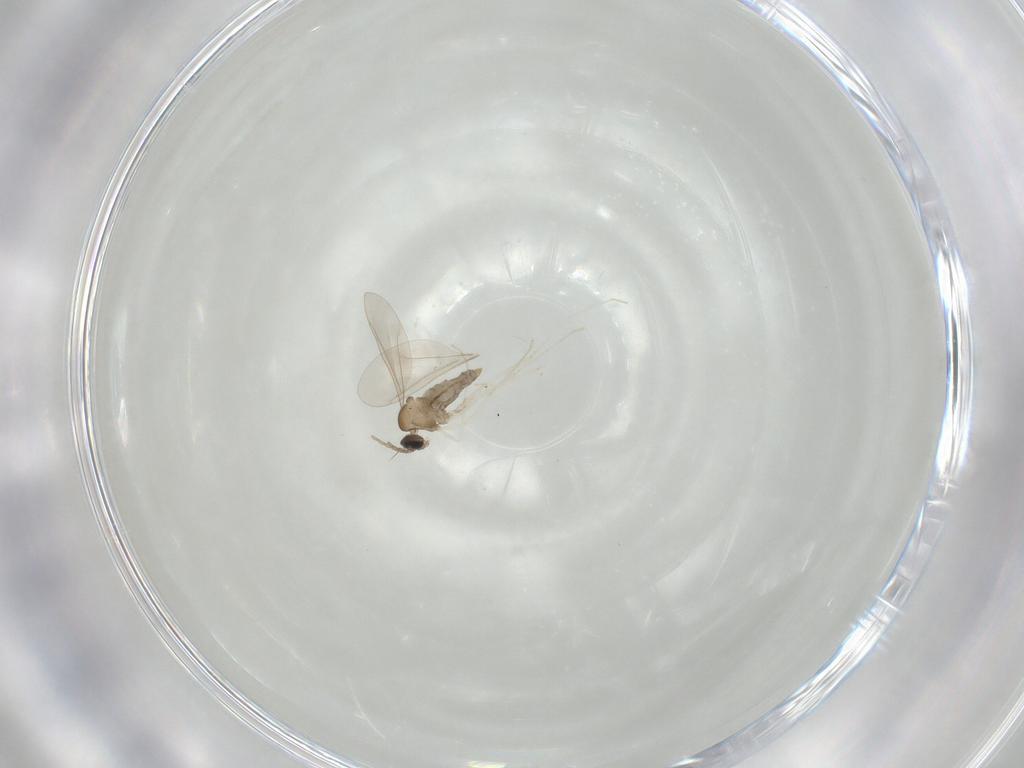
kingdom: Animalia
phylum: Arthropoda
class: Insecta
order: Diptera
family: Cecidomyiidae
